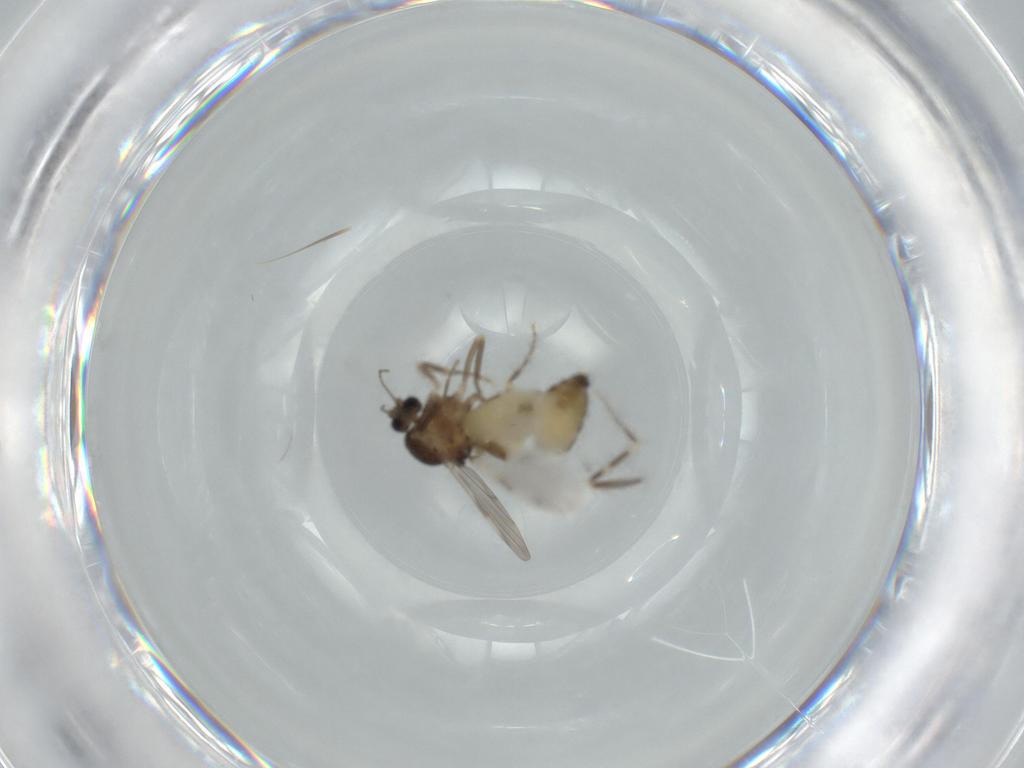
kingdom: Animalia
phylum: Arthropoda
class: Insecta
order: Diptera
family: Ceratopogonidae
